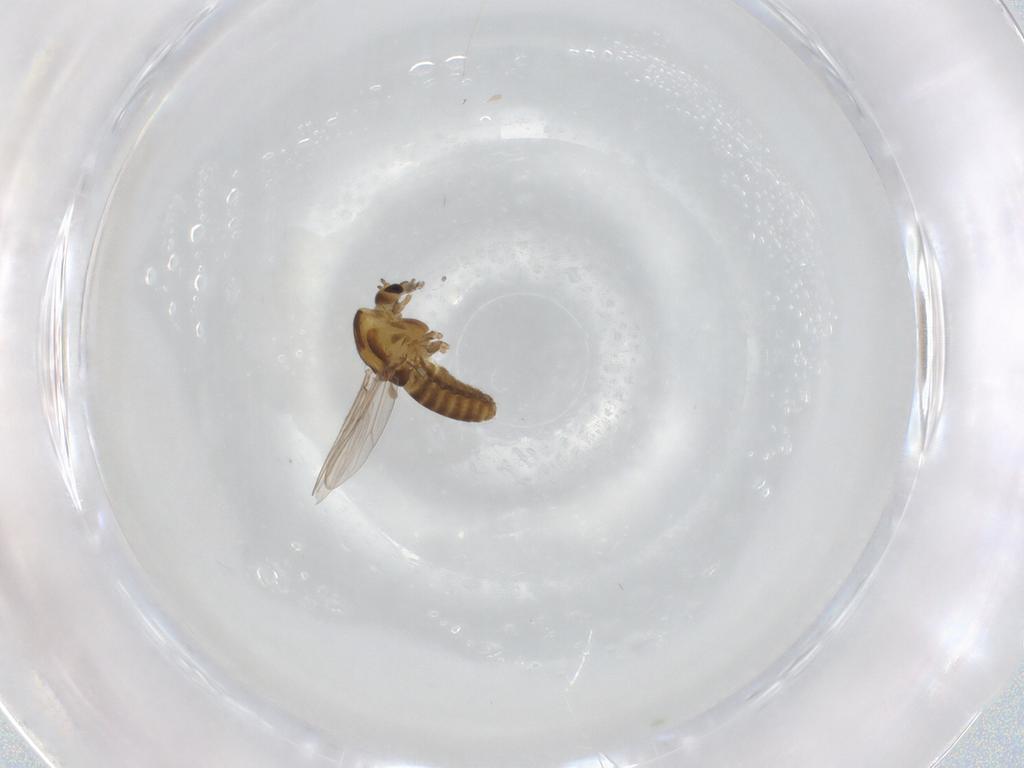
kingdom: Animalia
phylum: Arthropoda
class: Insecta
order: Diptera
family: Chironomidae
